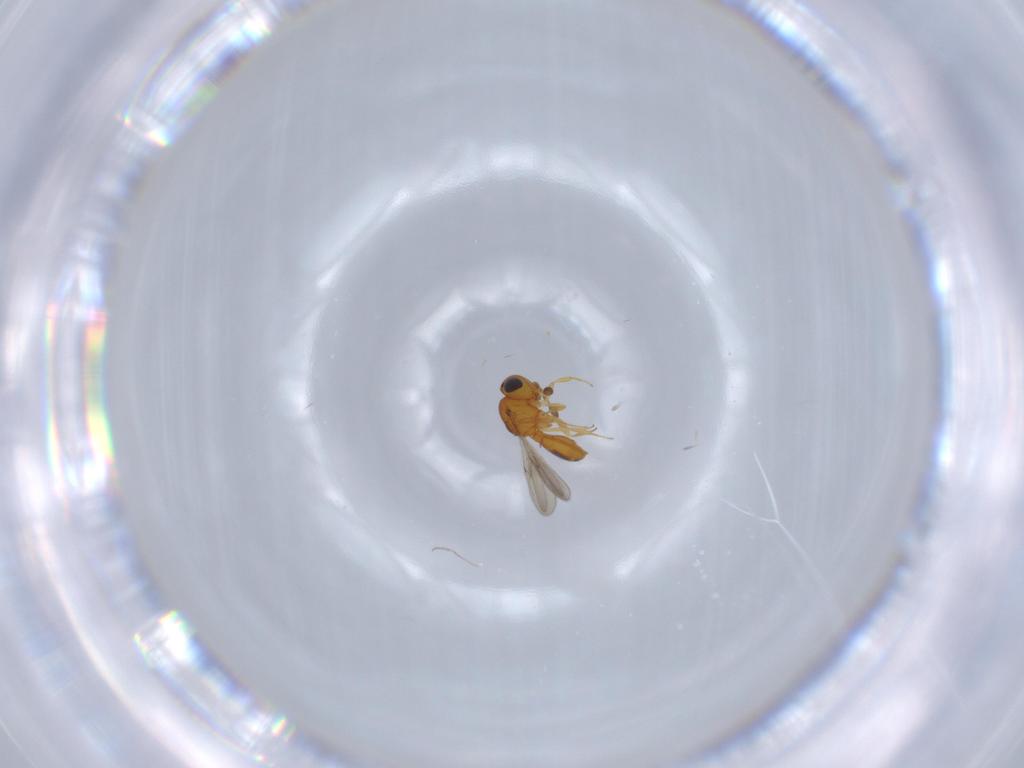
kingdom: Animalia
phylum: Arthropoda
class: Insecta
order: Hymenoptera
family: Scelionidae
